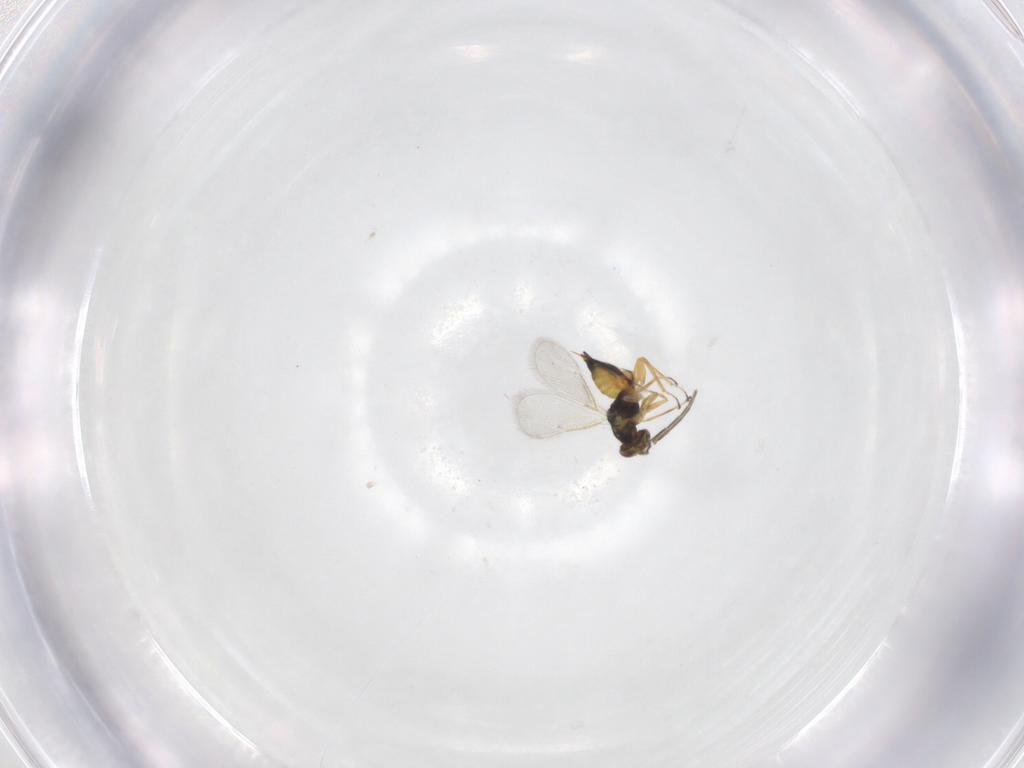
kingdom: Animalia
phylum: Arthropoda
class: Insecta
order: Hymenoptera
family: Eulophidae
